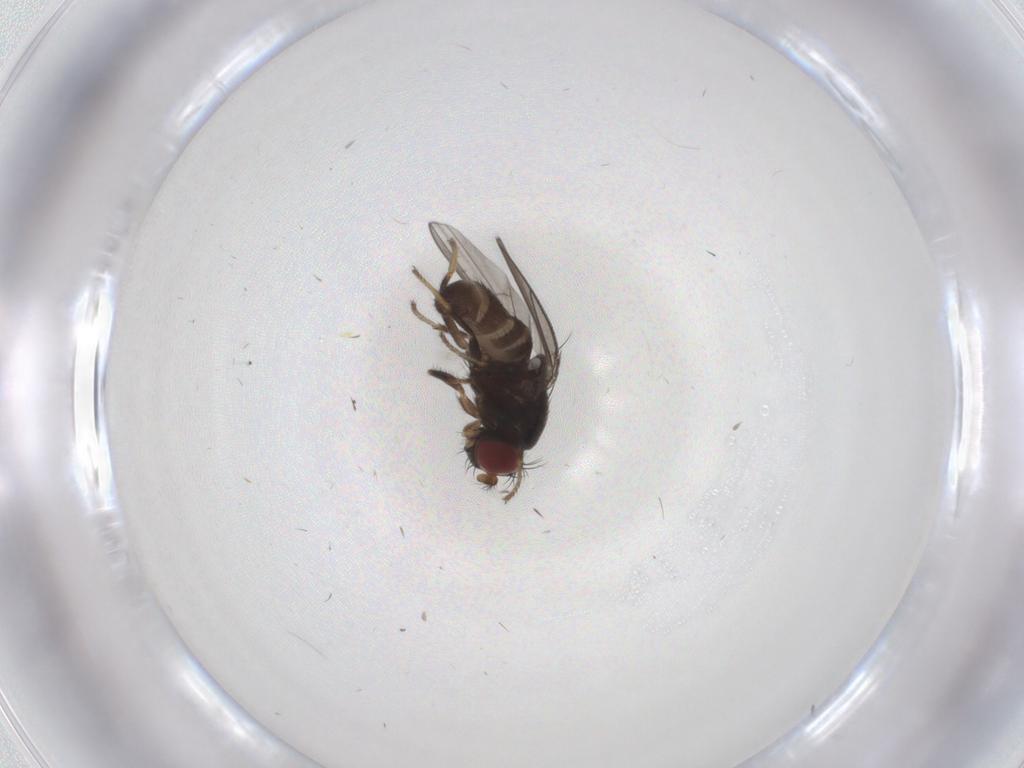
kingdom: Animalia
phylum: Arthropoda
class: Insecta
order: Diptera
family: Ephydridae
